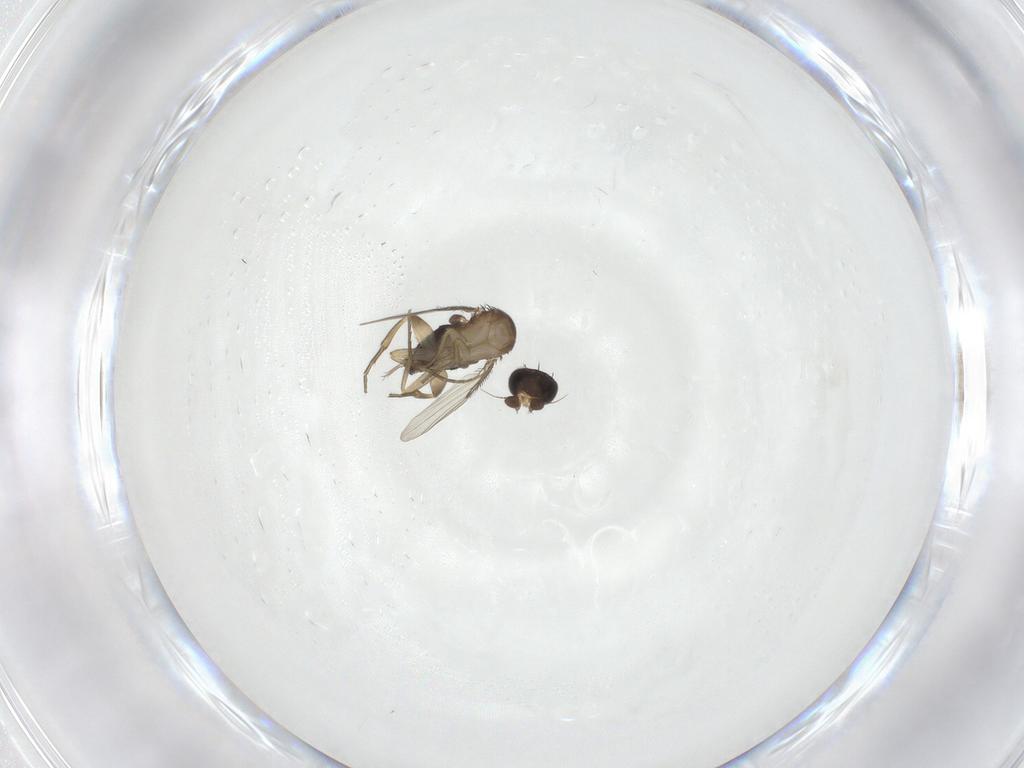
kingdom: Animalia
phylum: Arthropoda
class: Insecta
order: Diptera
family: Phoridae
